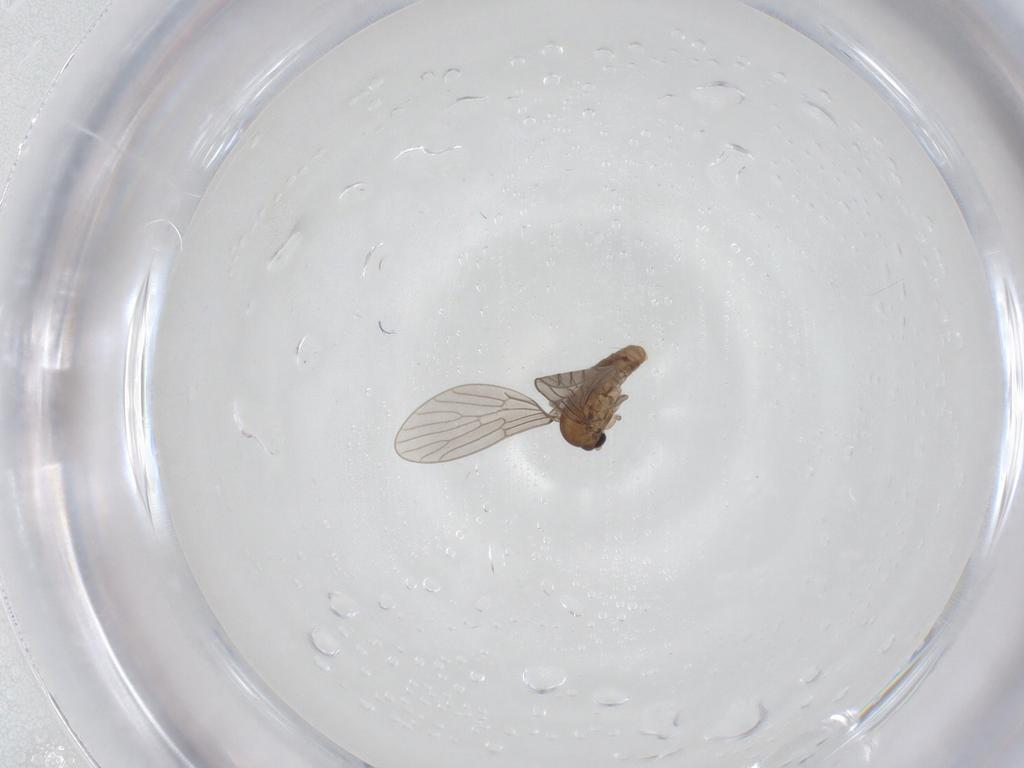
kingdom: Animalia
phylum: Arthropoda
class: Insecta
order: Diptera
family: Psychodidae
